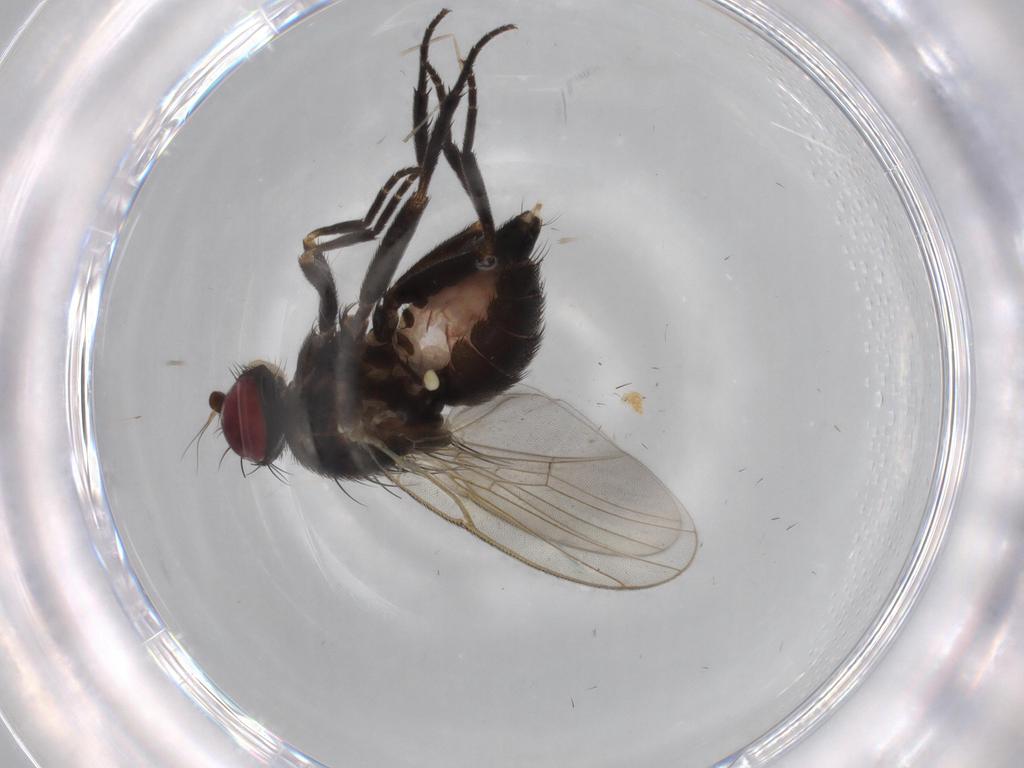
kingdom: Animalia
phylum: Arthropoda
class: Insecta
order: Diptera
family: Agromyzidae
